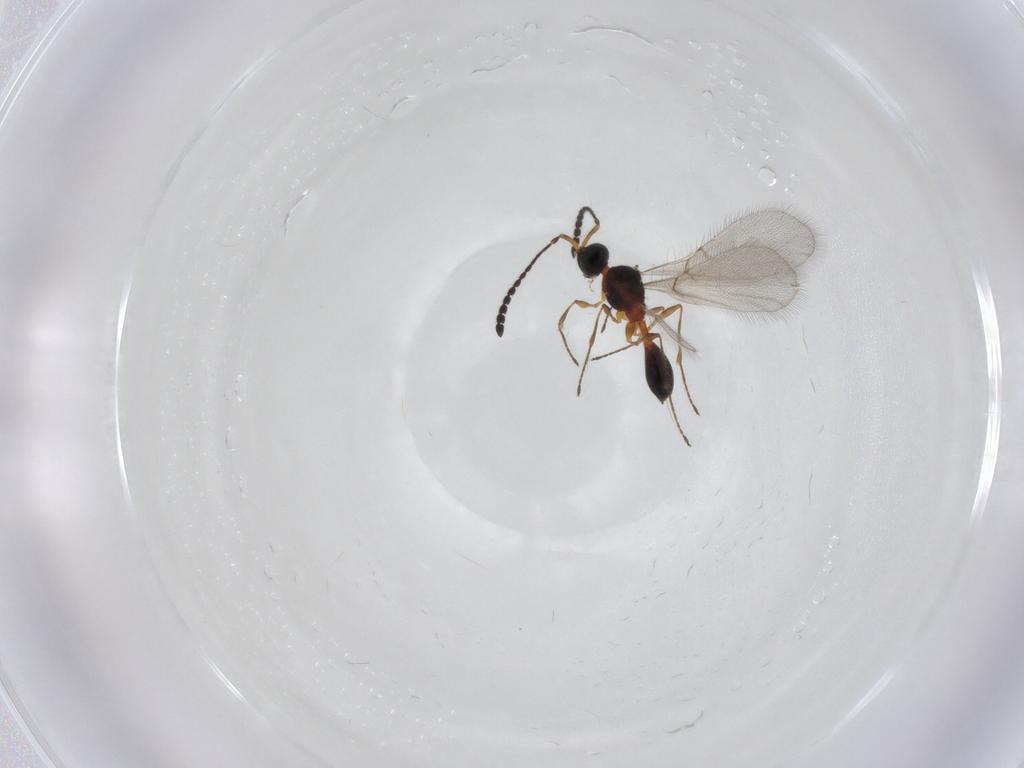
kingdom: Animalia
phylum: Arthropoda
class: Insecta
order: Hymenoptera
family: Diapriidae
